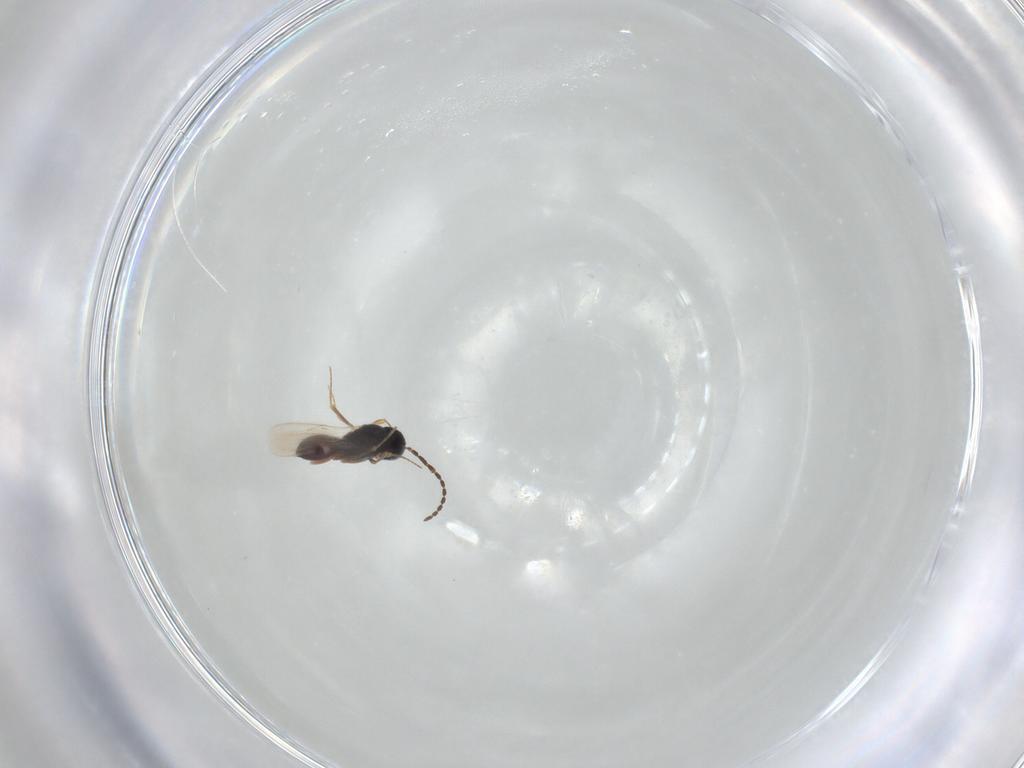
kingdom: Animalia
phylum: Arthropoda
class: Insecta
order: Hymenoptera
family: Scelionidae
